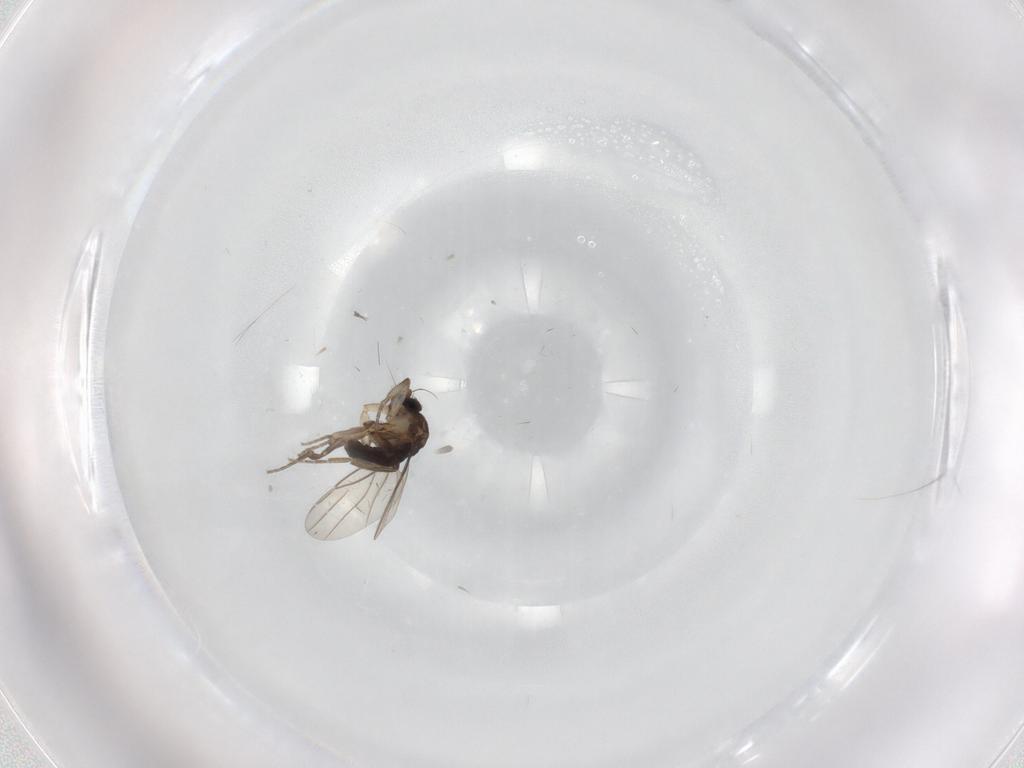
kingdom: Animalia
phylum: Arthropoda
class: Insecta
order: Diptera
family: Phoridae
